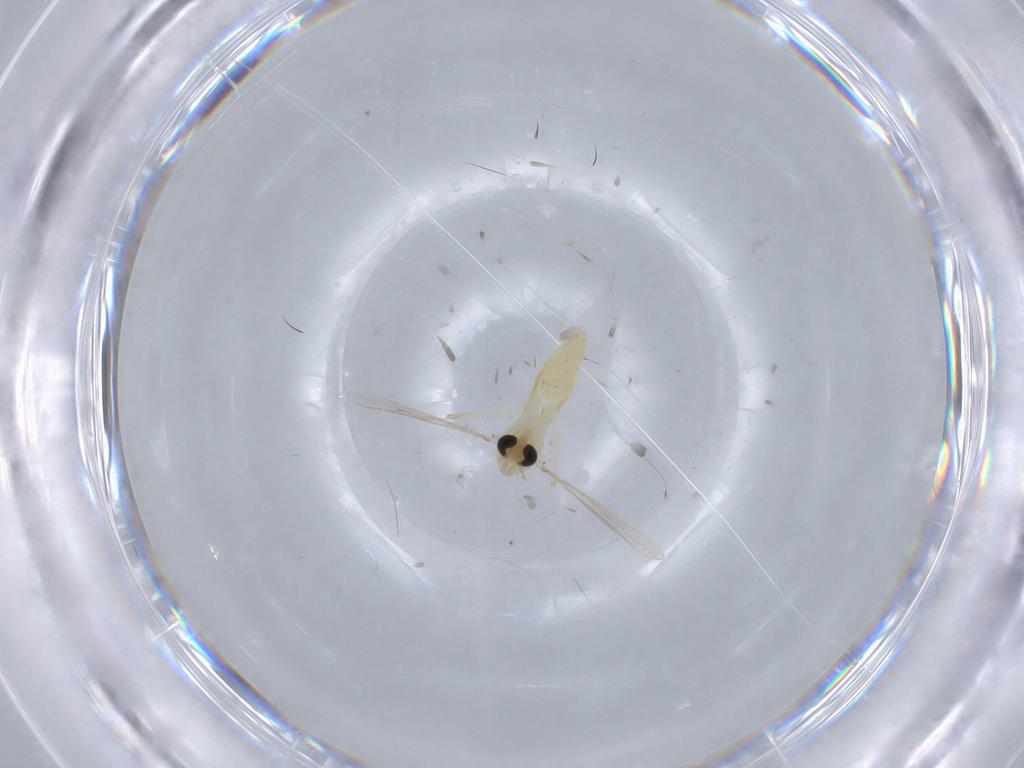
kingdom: Animalia
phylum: Arthropoda
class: Insecta
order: Diptera
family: Chironomidae
